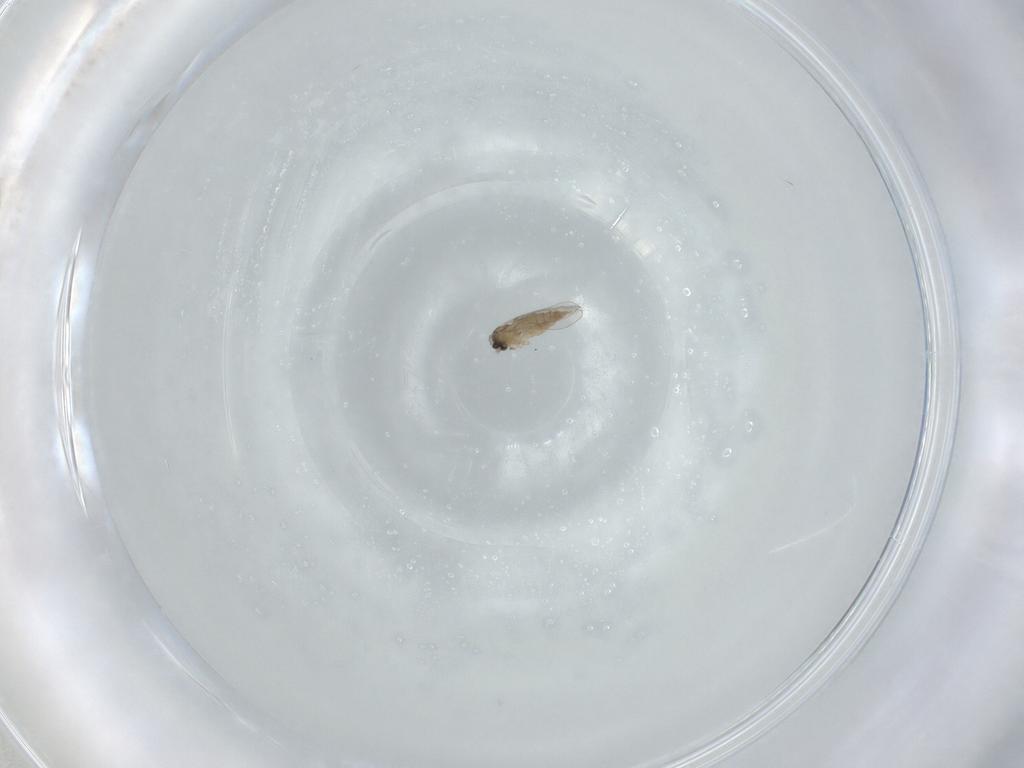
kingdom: Animalia
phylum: Arthropoda
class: Insecta
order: Diptera
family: Cecidomyiidae
